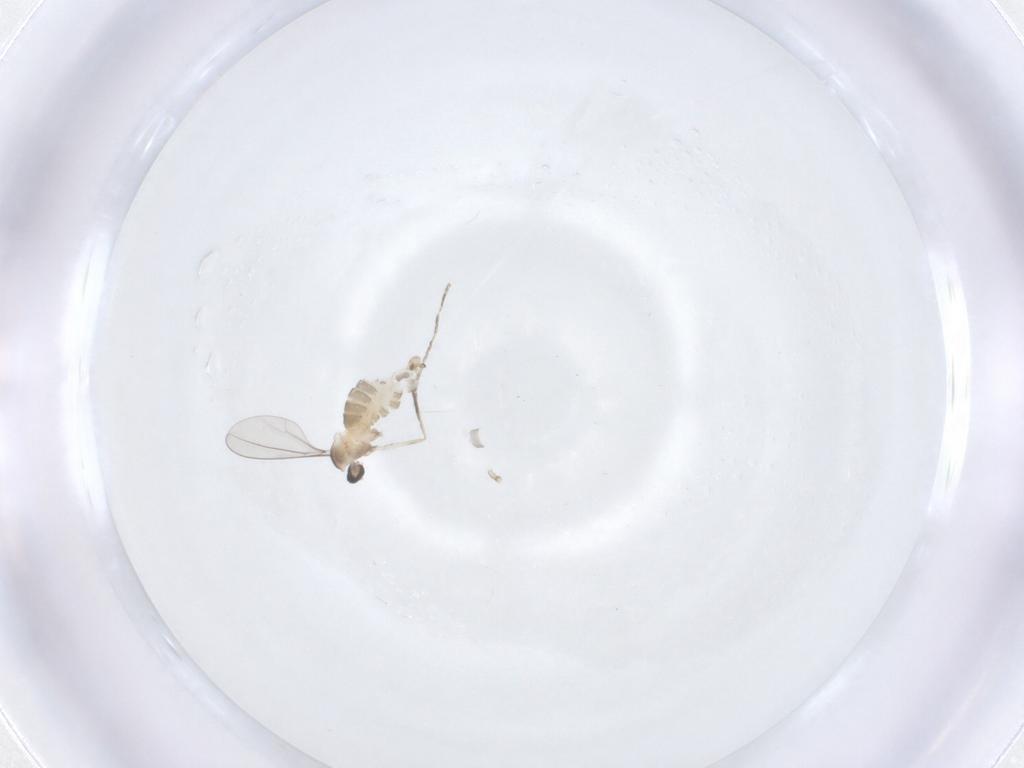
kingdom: Animalia
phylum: Arthropoda
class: Insecta
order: Diptera
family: Cecidomyiidae
